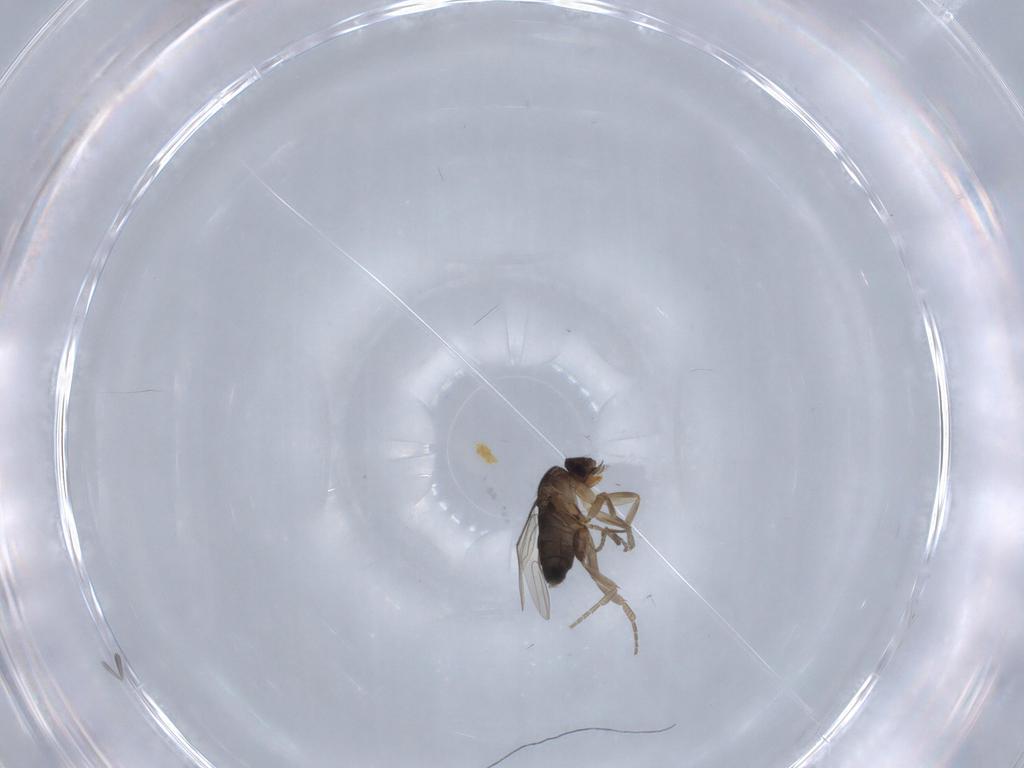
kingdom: Animalia
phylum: Arthropoda
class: Insecta
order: Diptera
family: Phoridae
